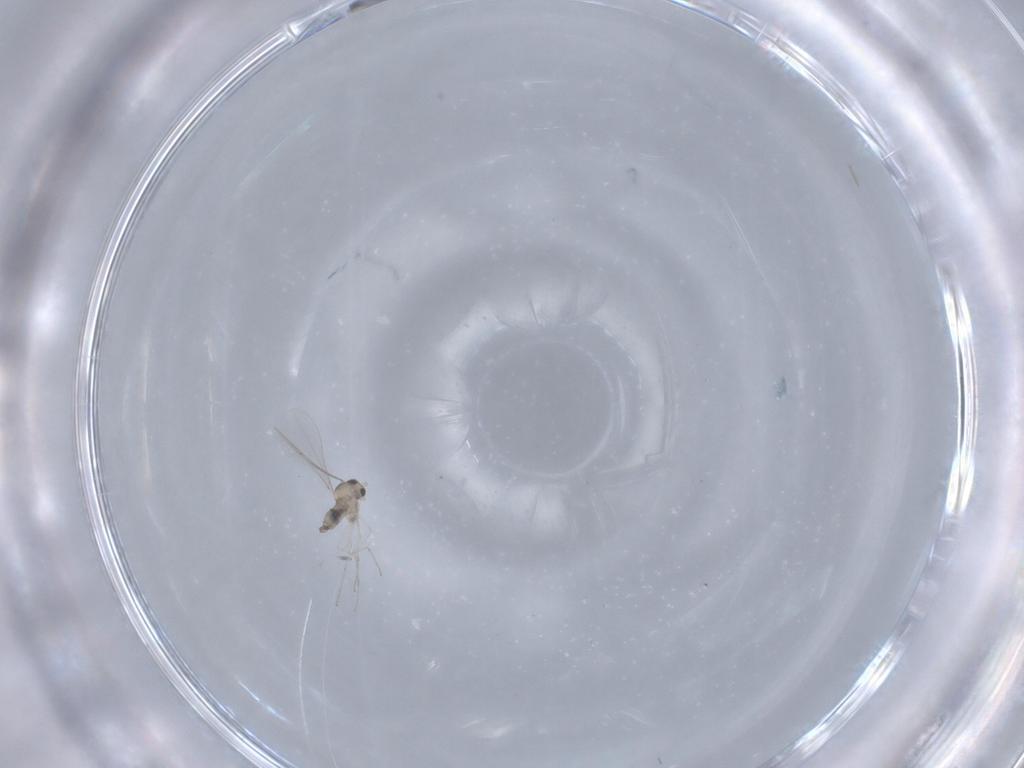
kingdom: Animalia
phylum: Arthropoda
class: Insecta
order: Diptera
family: Cecidomyiidae
